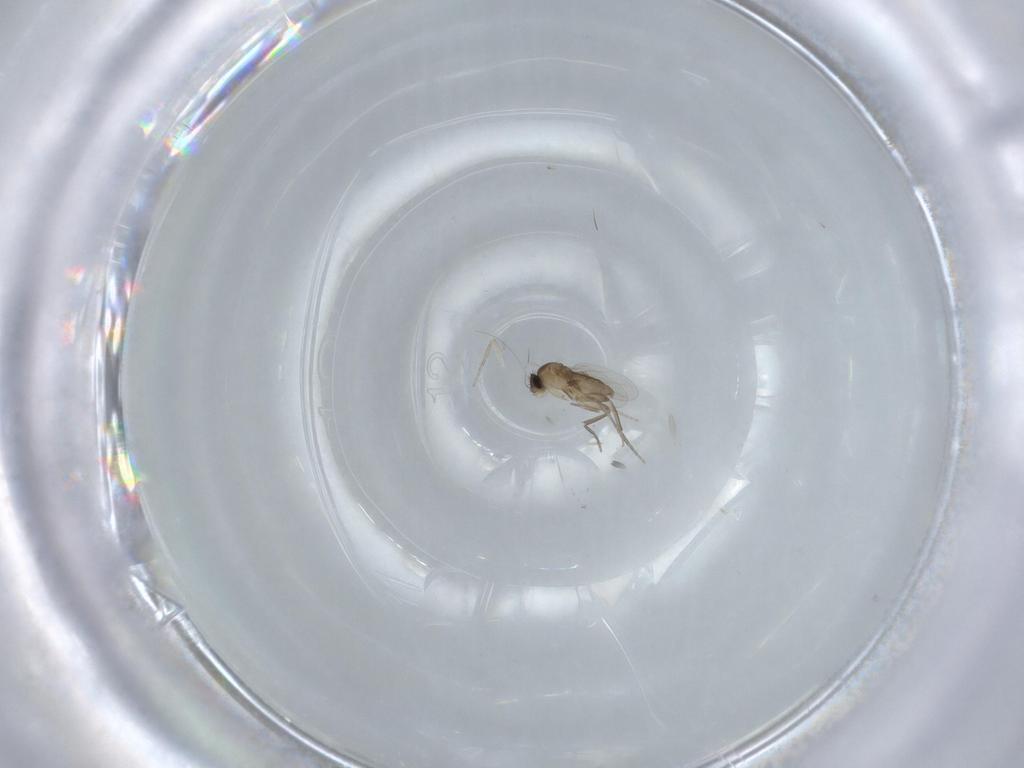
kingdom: Animalia
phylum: Arthropoda
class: Insecta
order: Diptera
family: Phoridae
